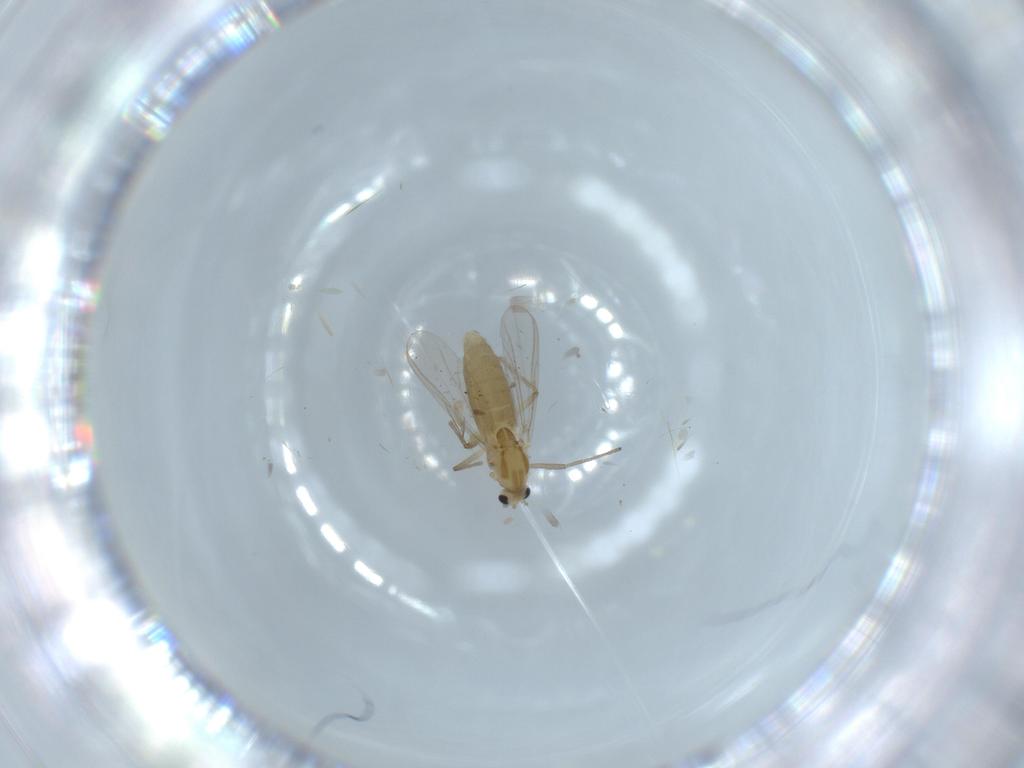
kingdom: Animalia
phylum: Arthropoda
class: Insecta
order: Diptera
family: Chironomidae
